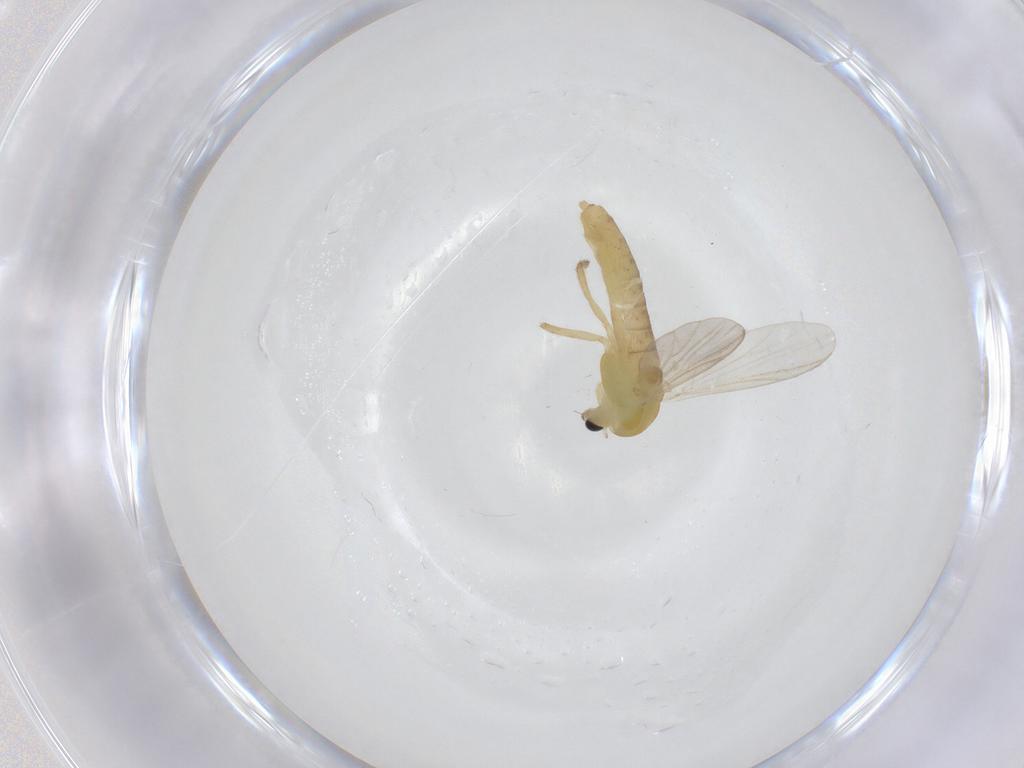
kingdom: Animalia
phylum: Arthropoda
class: Insecta
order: Diptera
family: Chironomidae
